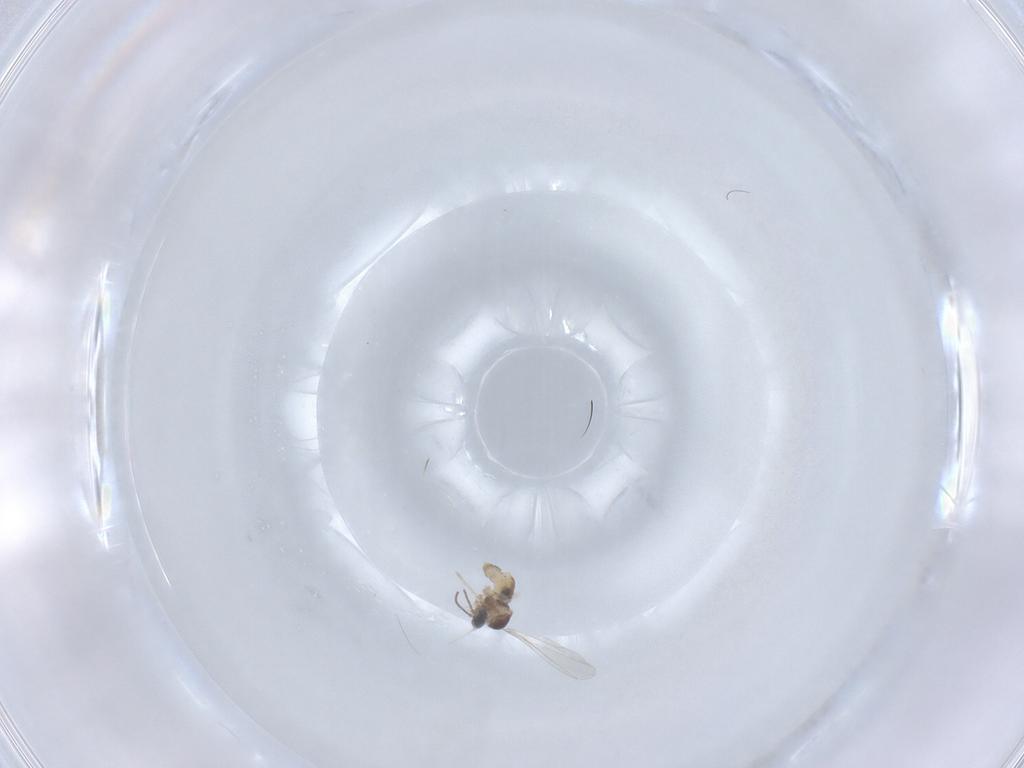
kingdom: Animalia
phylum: Arthropoda
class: Insecta
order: Diptera
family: Cecidomyiidae
